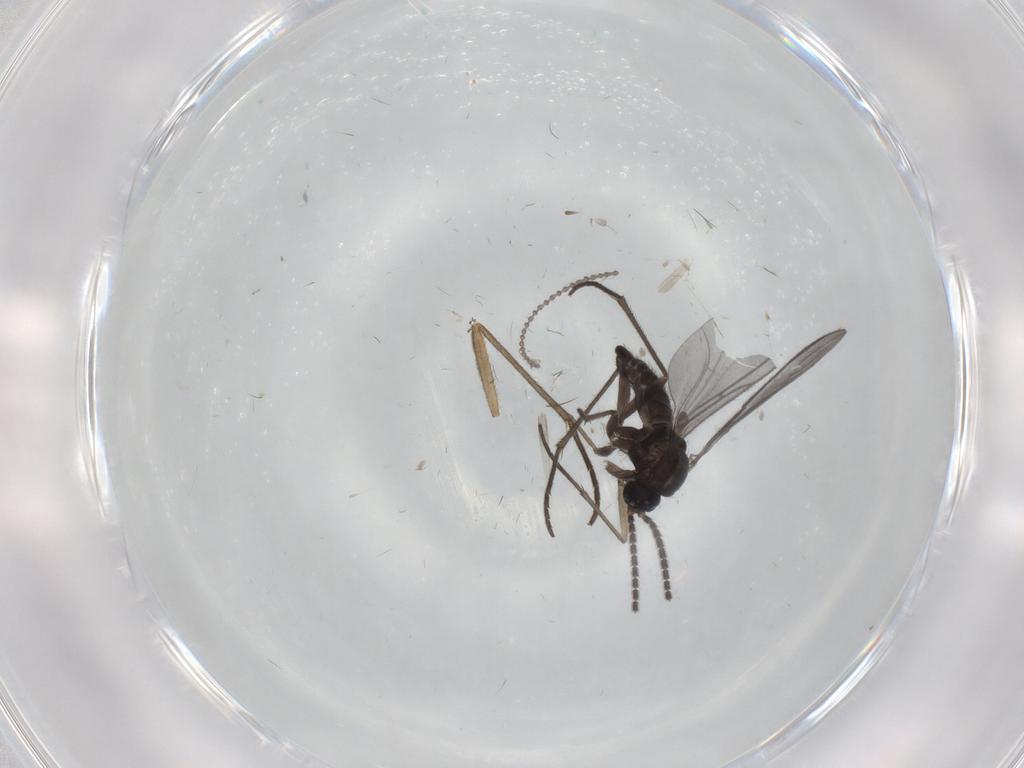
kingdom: Animalia
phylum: Arthropoda
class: Insecta
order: Diptera
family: Sciaridae
